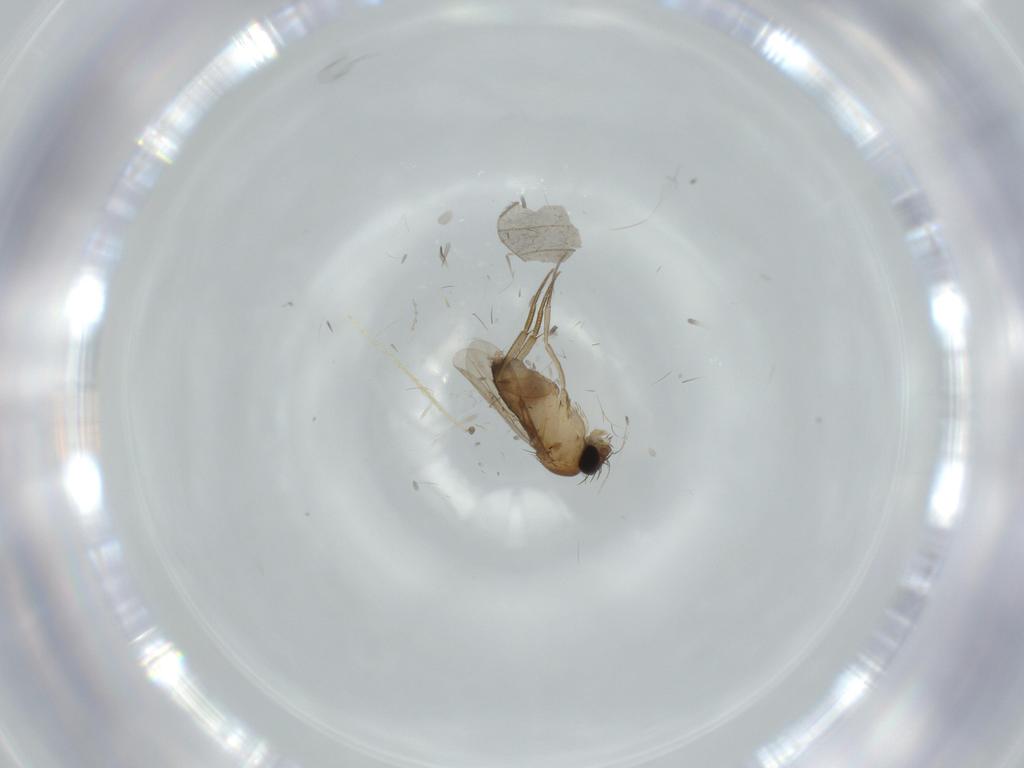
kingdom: Animalia
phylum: Arthropoda
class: Insecta
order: Diptera
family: Phoridae
